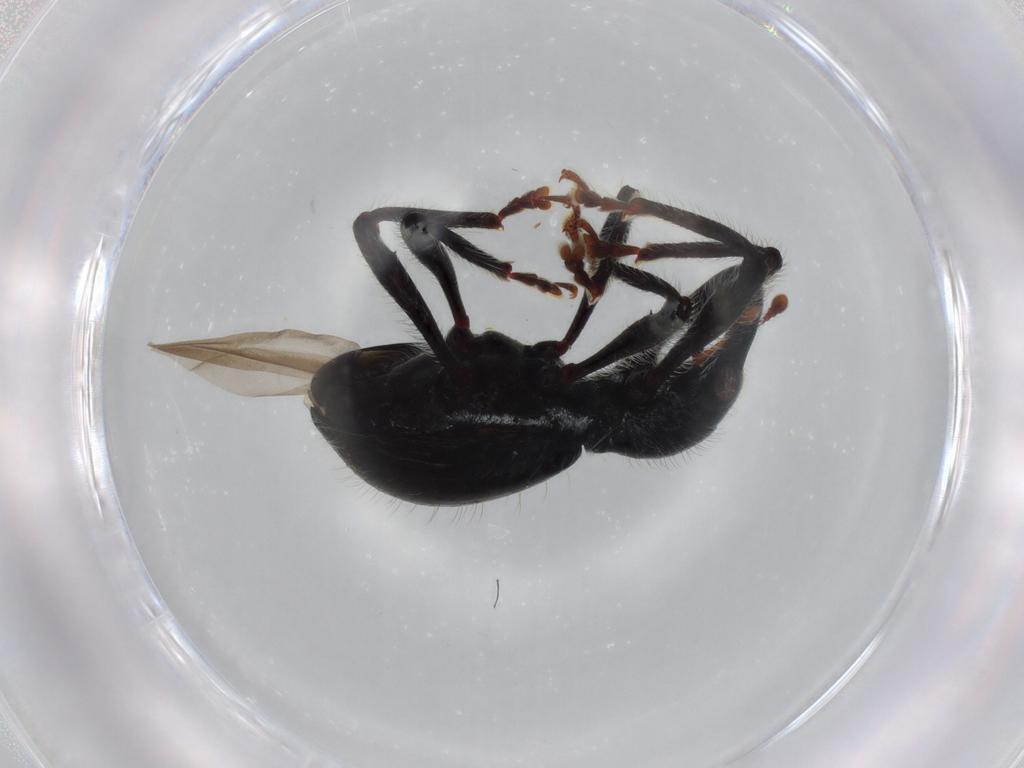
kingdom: Animalia
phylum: Arthropoda
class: Insecta
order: Coleoptera
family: Curculionidae
